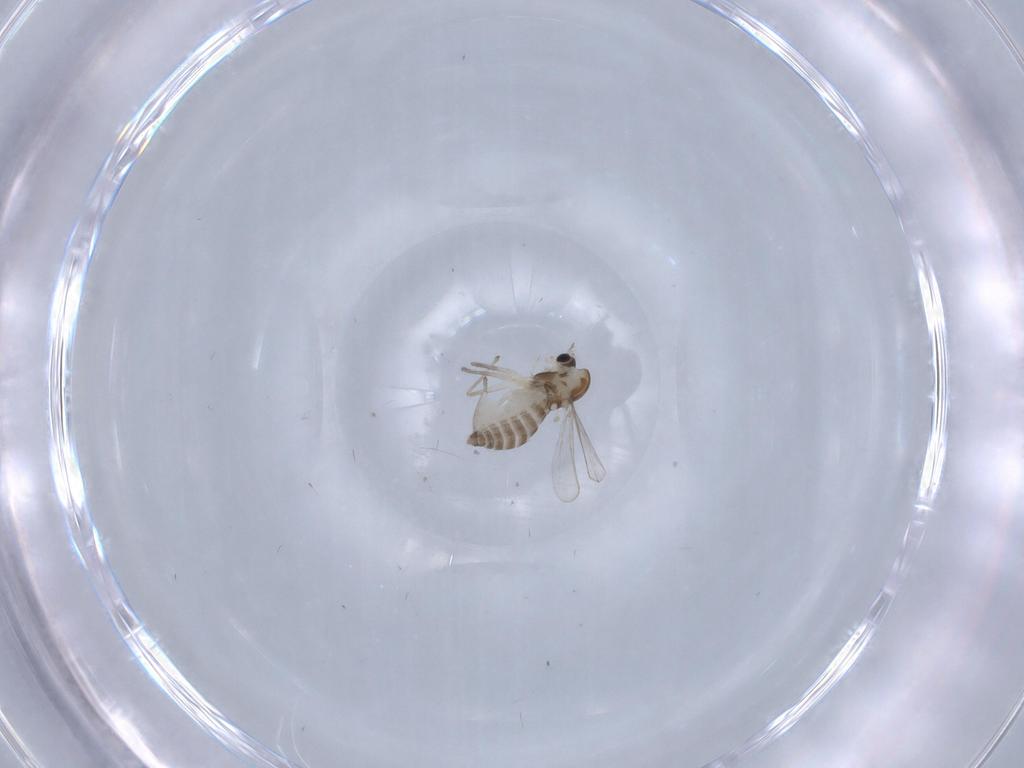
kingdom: Animalia
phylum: Arthropoda
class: Insecta
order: Diptera
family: Chironomidae
